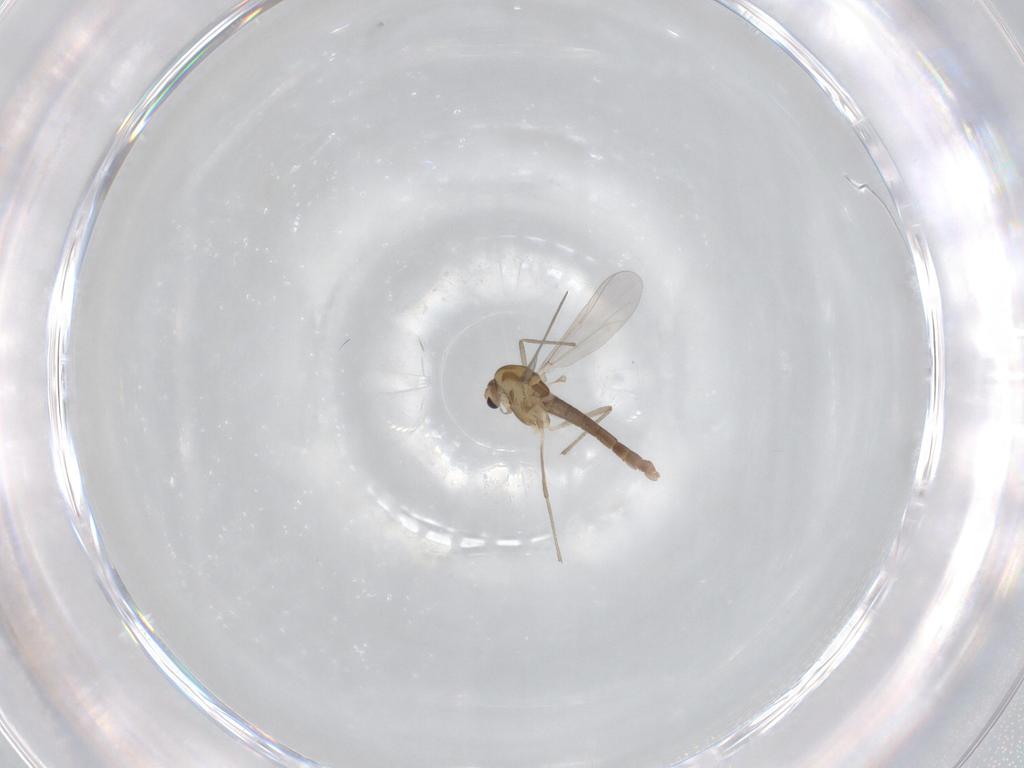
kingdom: Animalia
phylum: Arthropoda
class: Insecta
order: Diptera
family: Chironomidae
